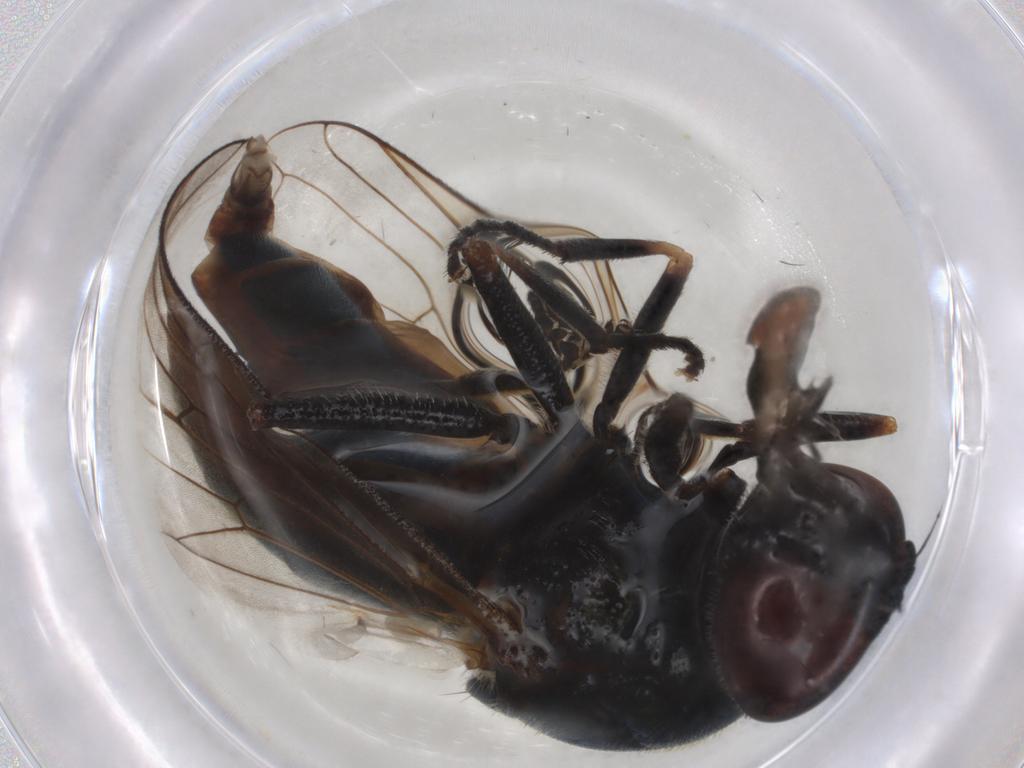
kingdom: Animalia
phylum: Arthropoda
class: Insecta
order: Diptera
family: Syrphidae
